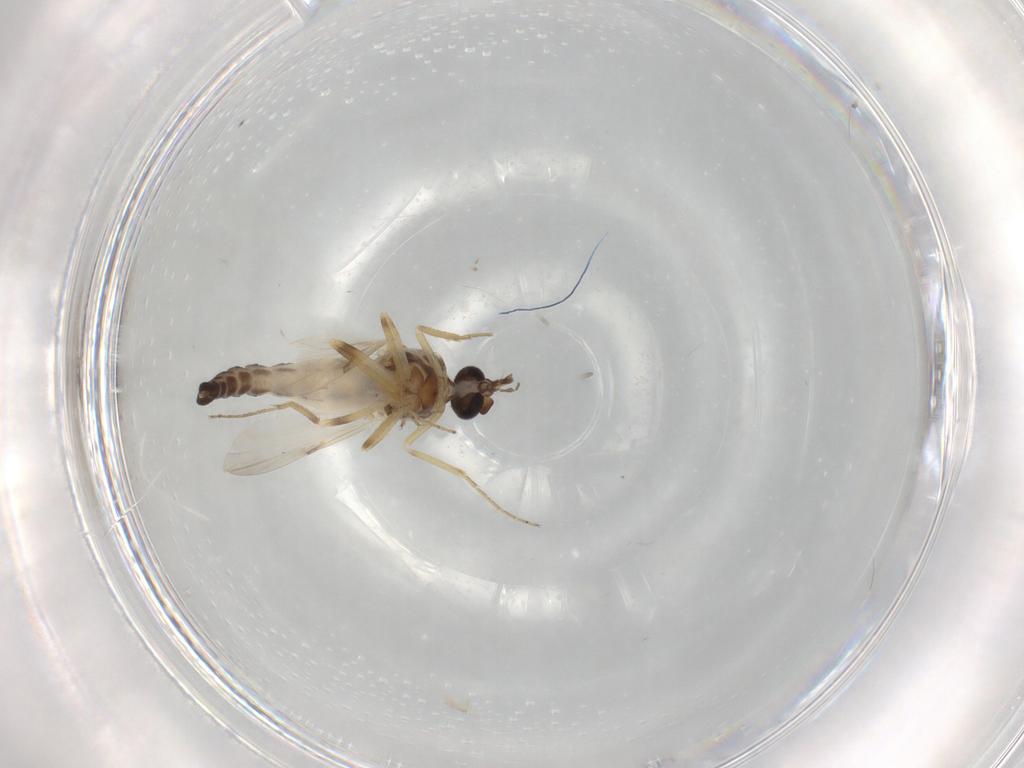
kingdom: Animalia
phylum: Arthropoda
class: Insecta
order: Diptera
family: Ceratopogonidae
